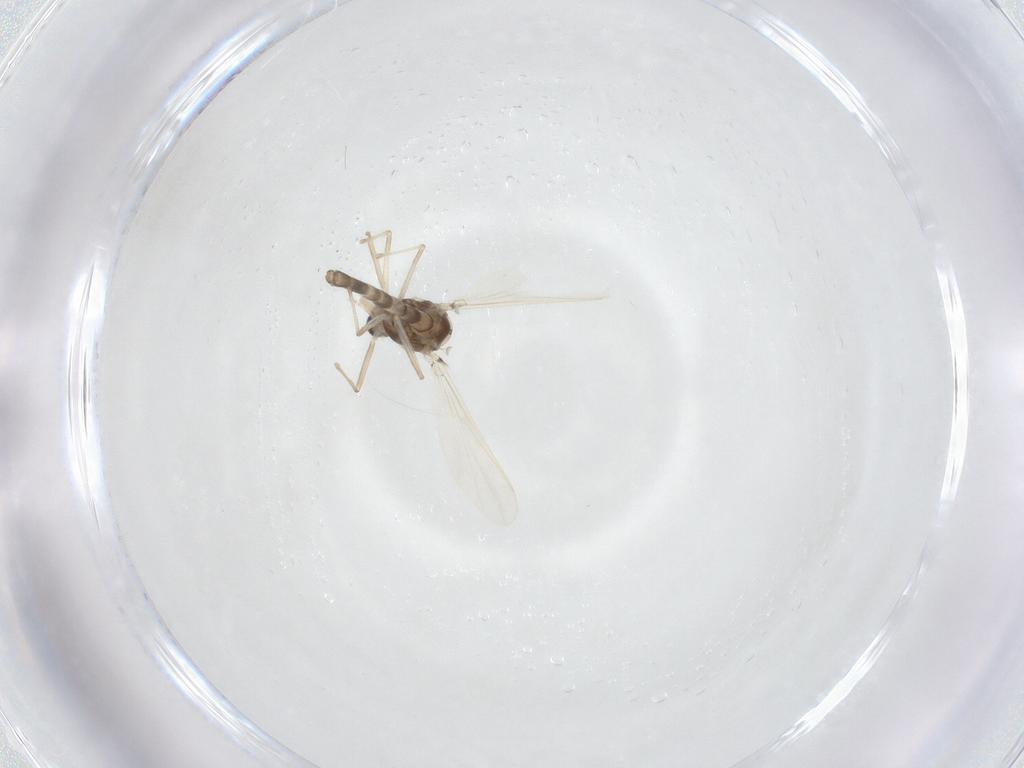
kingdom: Animalia
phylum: Arthropoda
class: Insecta
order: Diptera
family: Chironomidae
